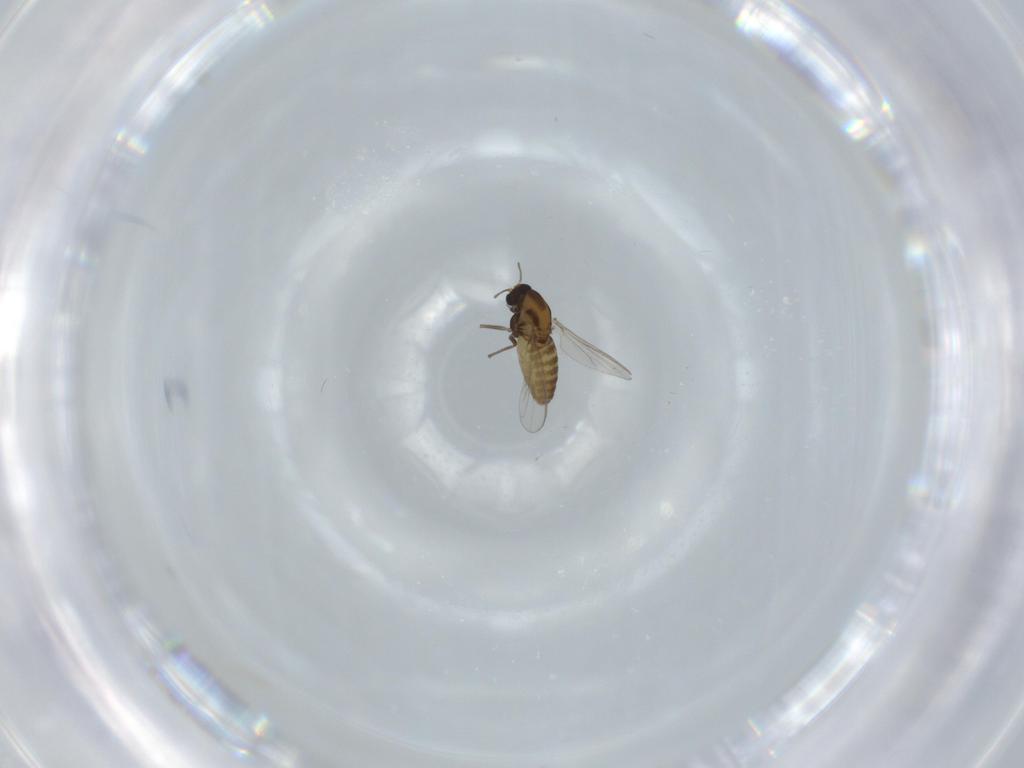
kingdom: Animalia
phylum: Arthropoda
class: Insecta
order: Diptera
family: Chironomidae
